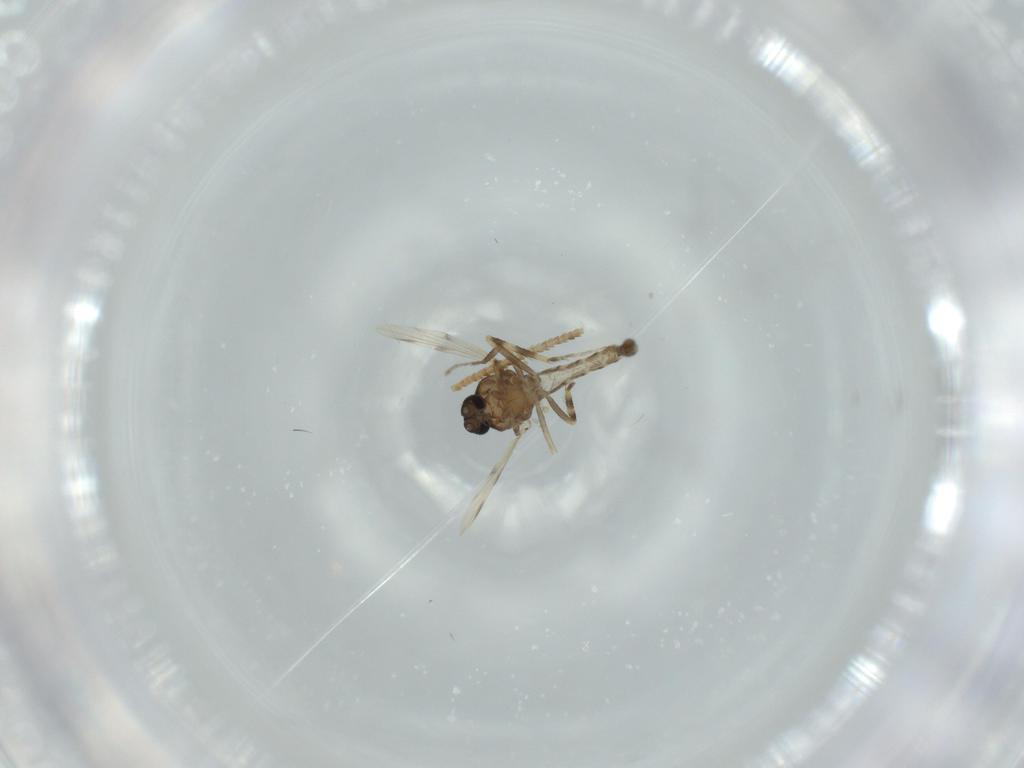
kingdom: Animalia
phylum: Arthropoda
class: Insecta
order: Diptera
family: Ceratopogonidae
